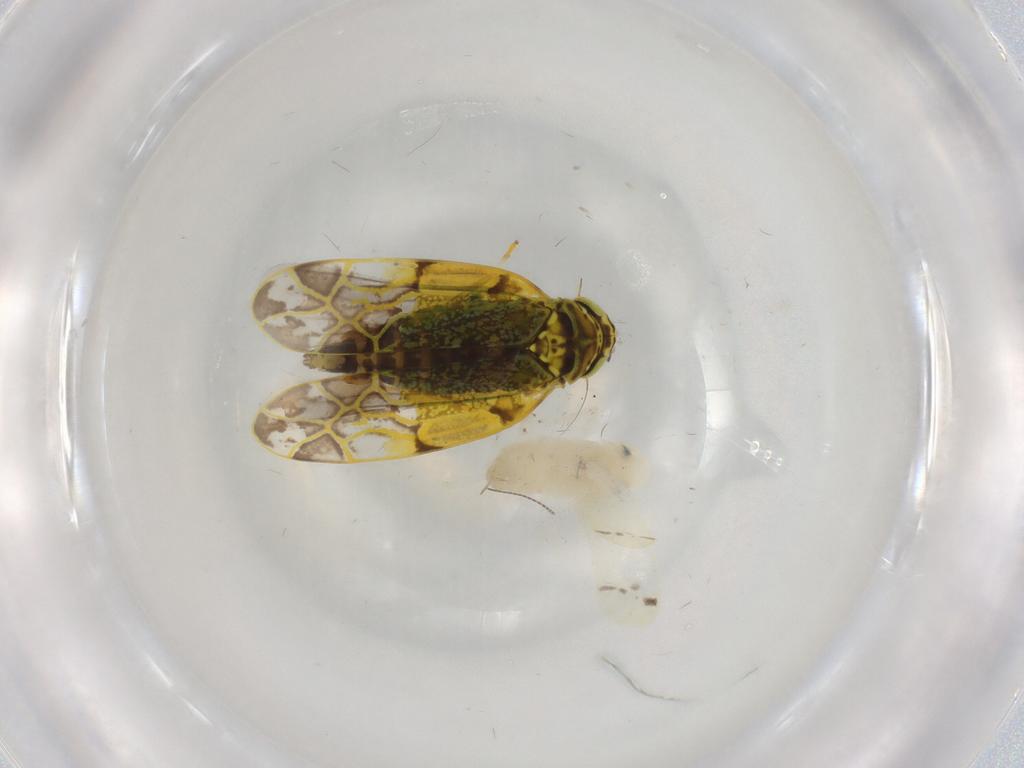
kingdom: Animalia
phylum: Arthropoda
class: Insecta
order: Hemiptera
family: Cicadellidae
